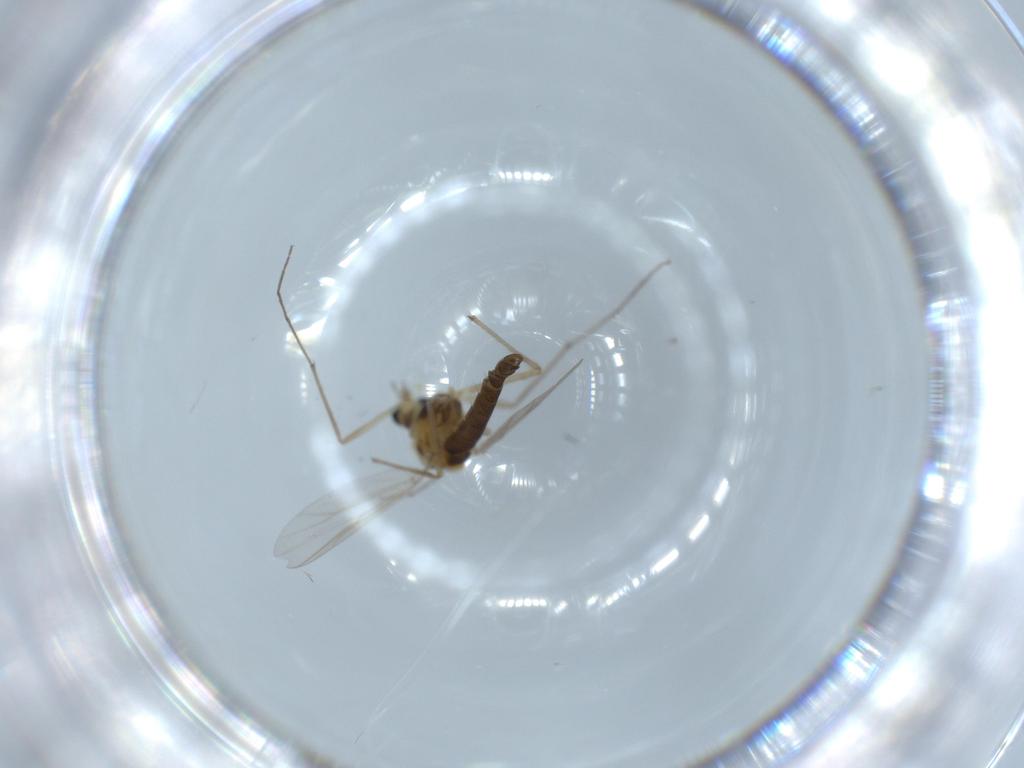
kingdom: Animalia
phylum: Arthropoda
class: Insecta
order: Diptera
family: Chironomidae
